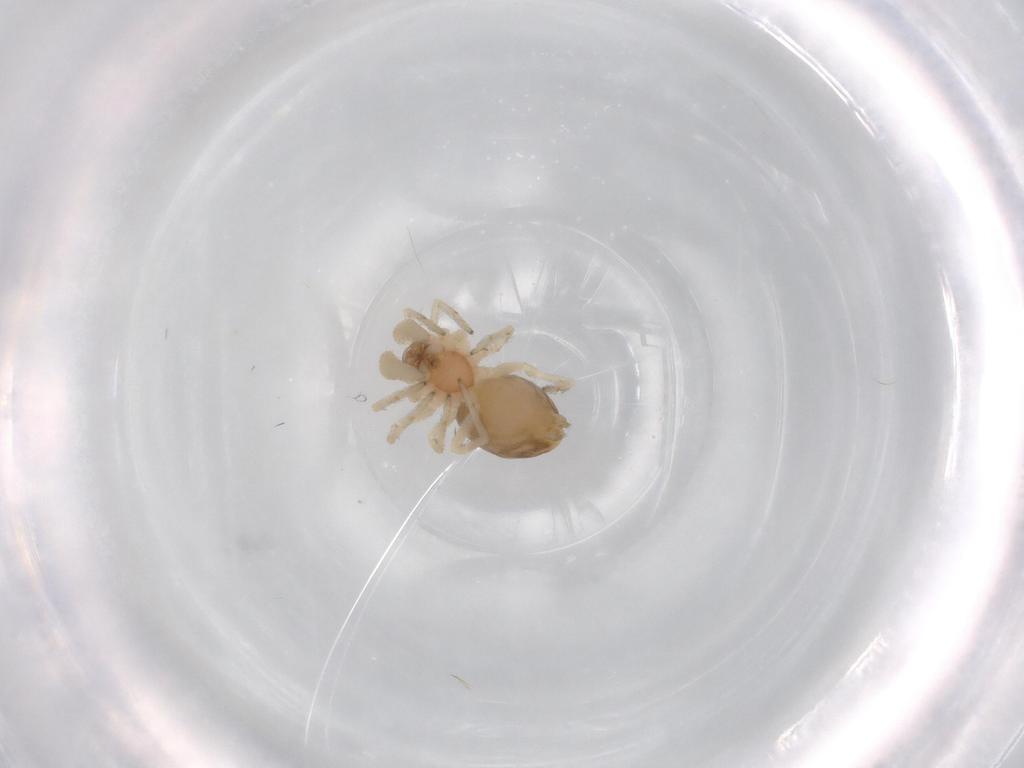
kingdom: Animalia
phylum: Arthropoda
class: Arachnida
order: Araneae
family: Dictynidae
